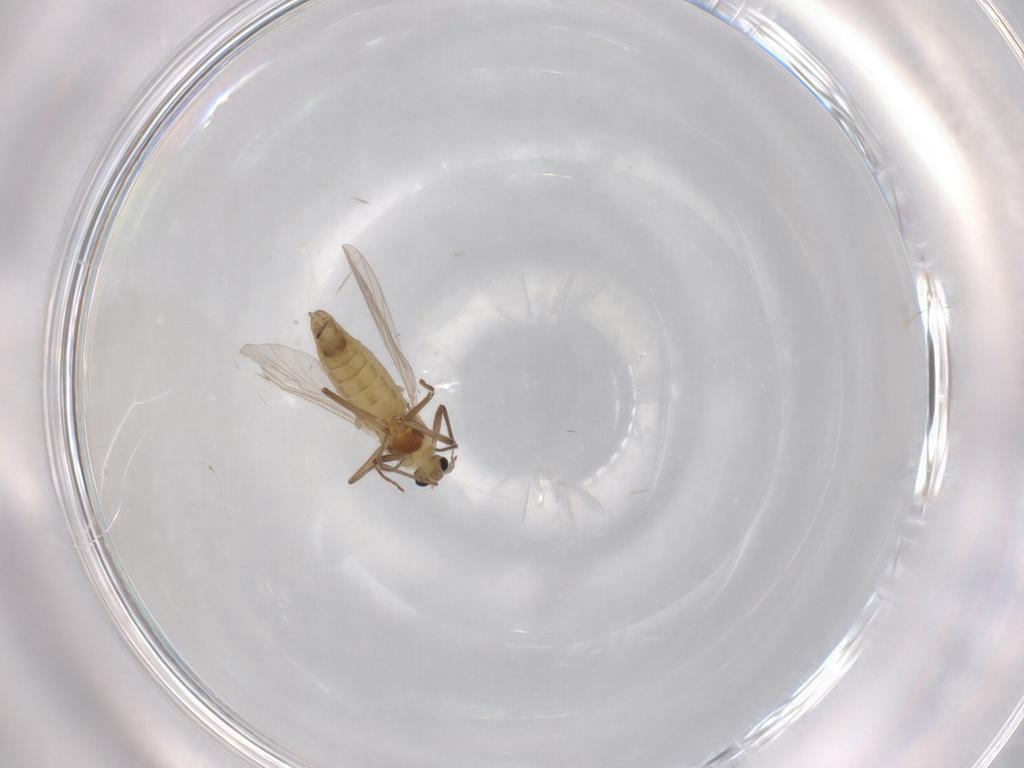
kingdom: Animalia
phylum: Arthropoda
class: Insecta
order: Diptera
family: Chironomidae
